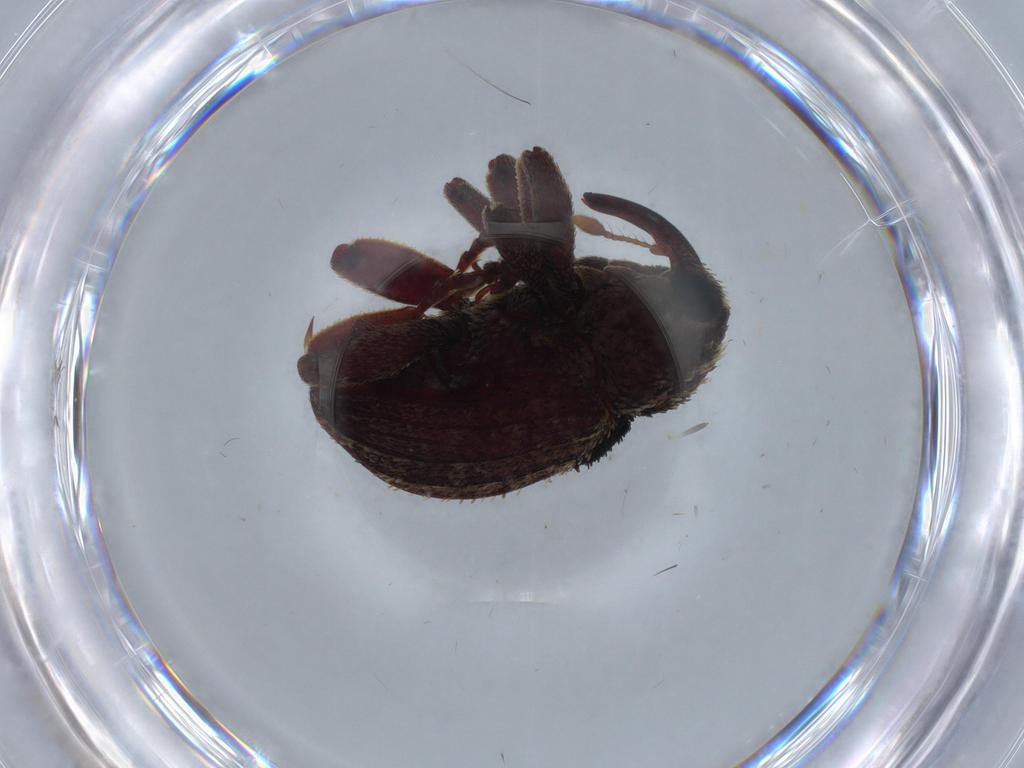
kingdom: Animalia
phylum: Arthropoda
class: Insecta
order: Coleoptera
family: Curculionidae
